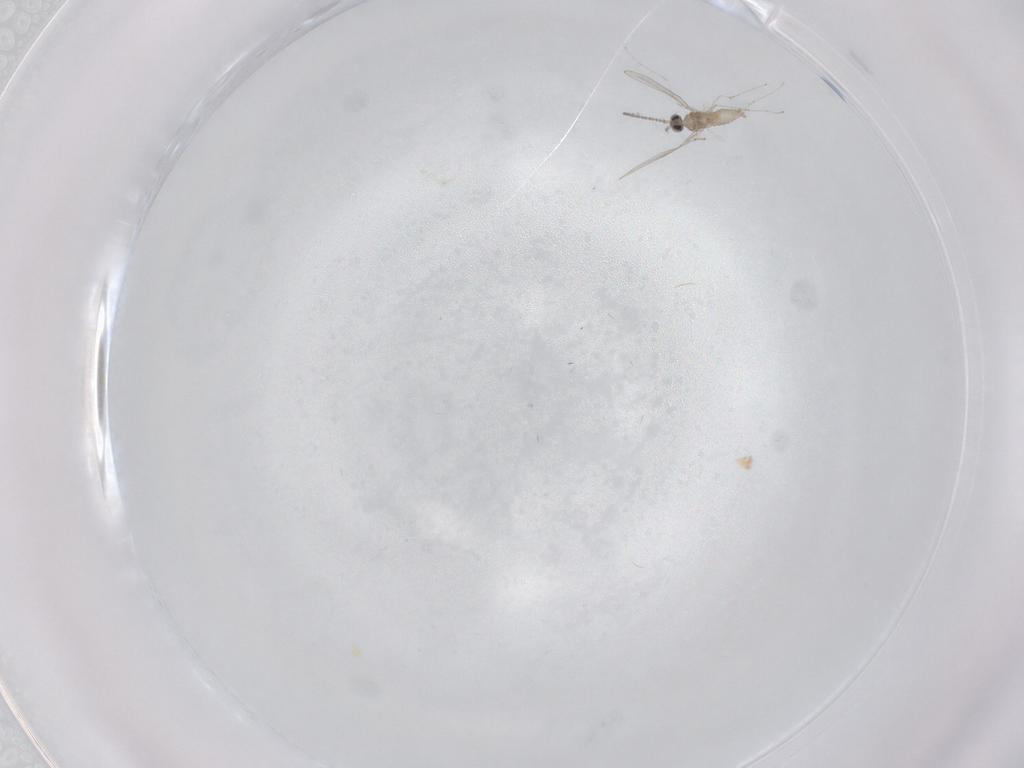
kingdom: Animalia
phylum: Arthropoda
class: Insecta
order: Diptera
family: Cecidomyiidae
